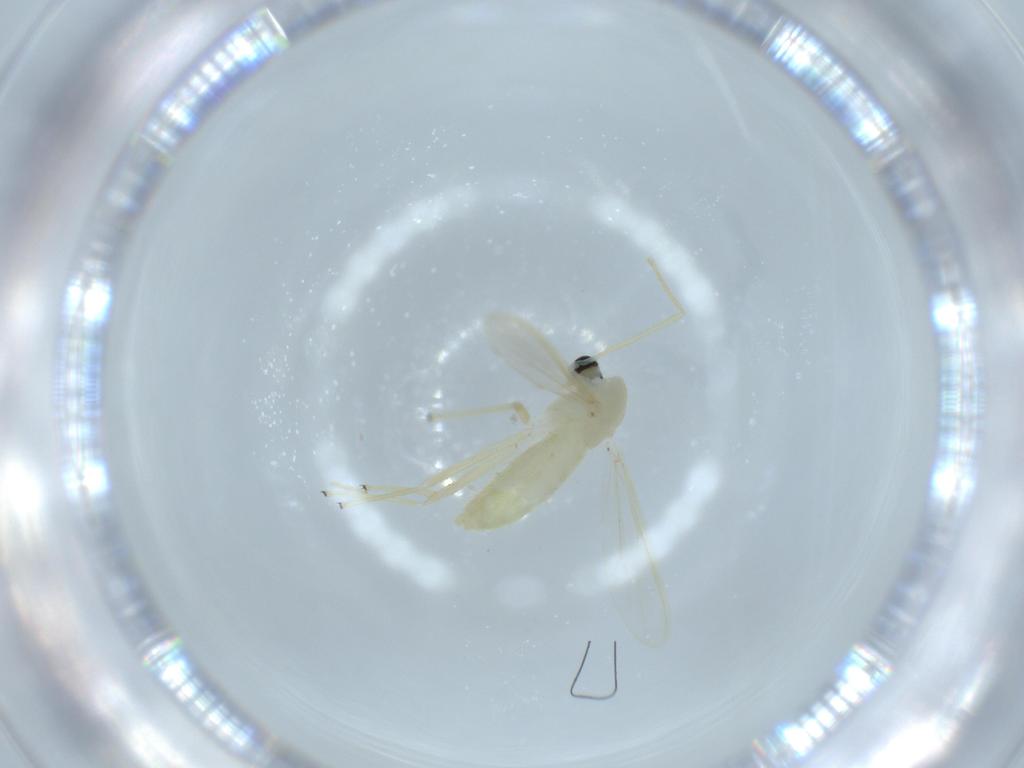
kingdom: Animalia
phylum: Arthropoda
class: Insecta
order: Diptera
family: Chironomidae
